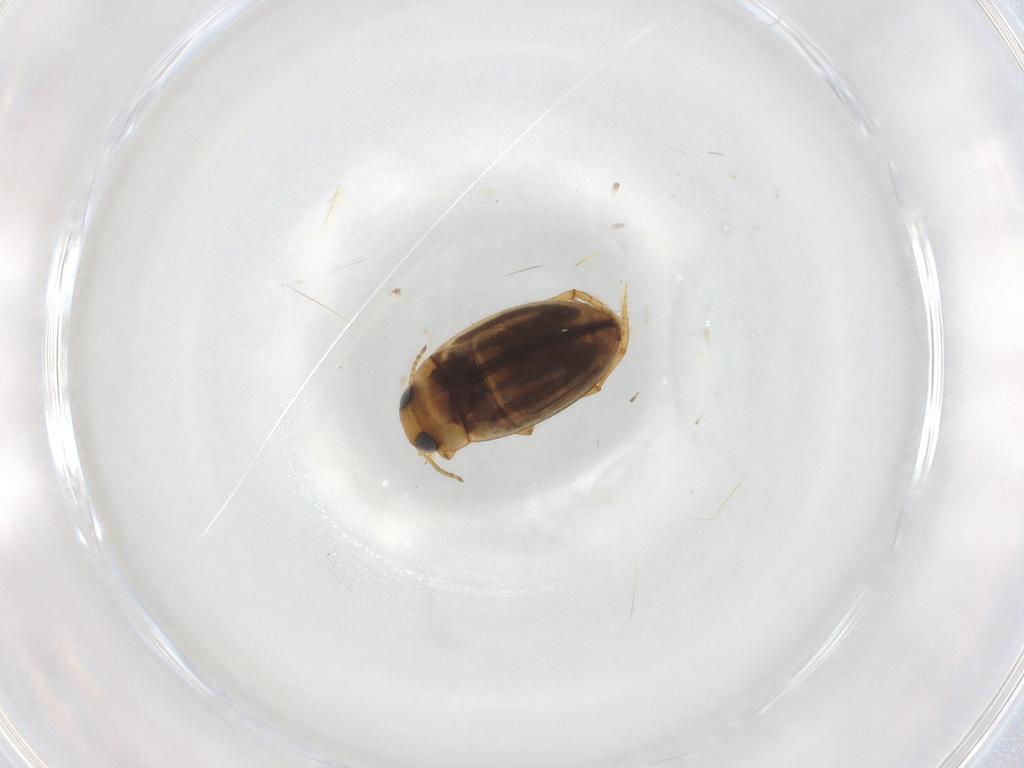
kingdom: Animalia
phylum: Arthropoda
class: Insecta
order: Coleoptera
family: Dytiscidae
